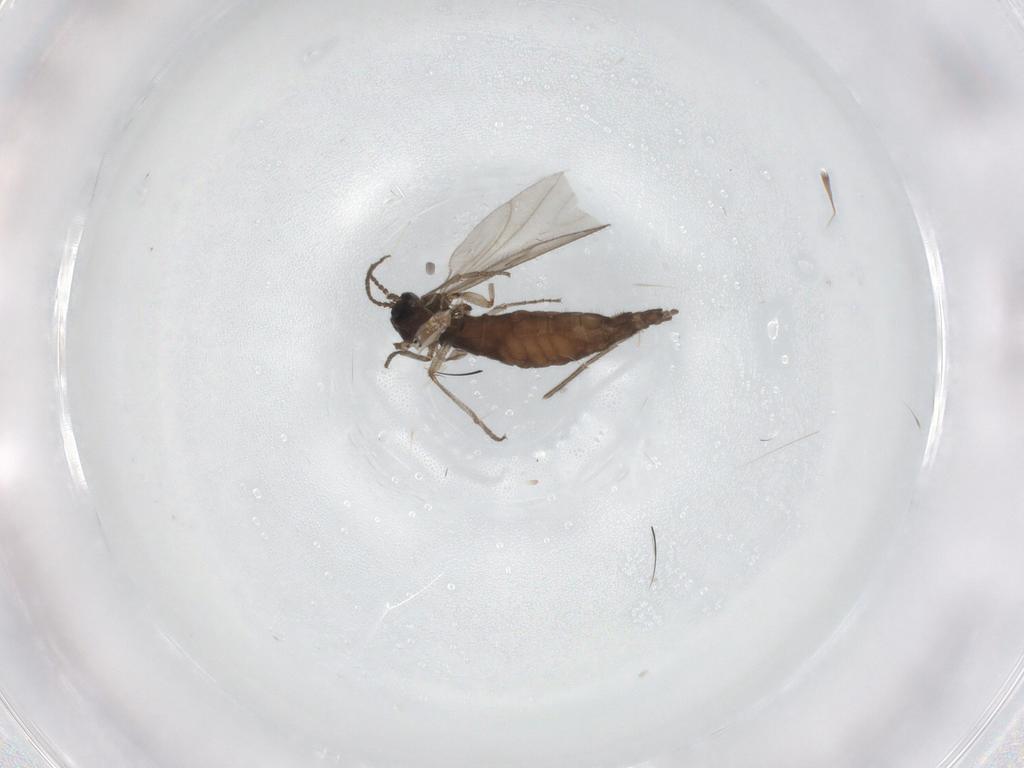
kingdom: Animalia
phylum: Arthropoda
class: Insecta
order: Diptera
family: Sciaridae
